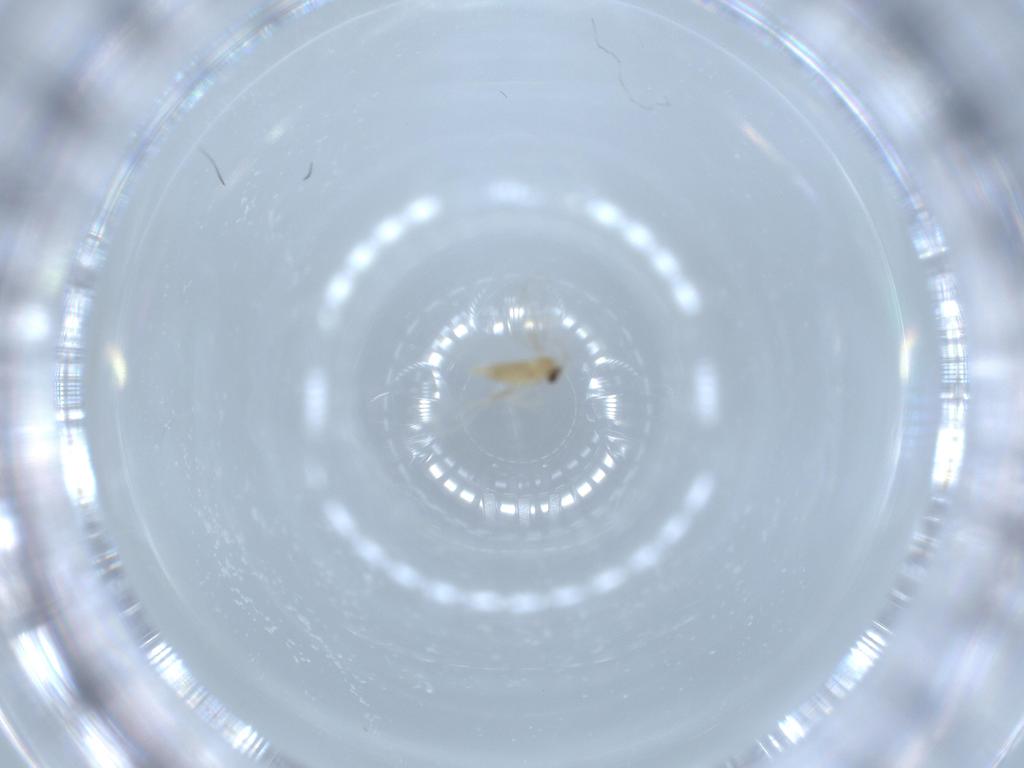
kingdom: Animalia
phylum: Arthropoda
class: Insecta
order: Diptera
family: Cecidomyiidae
